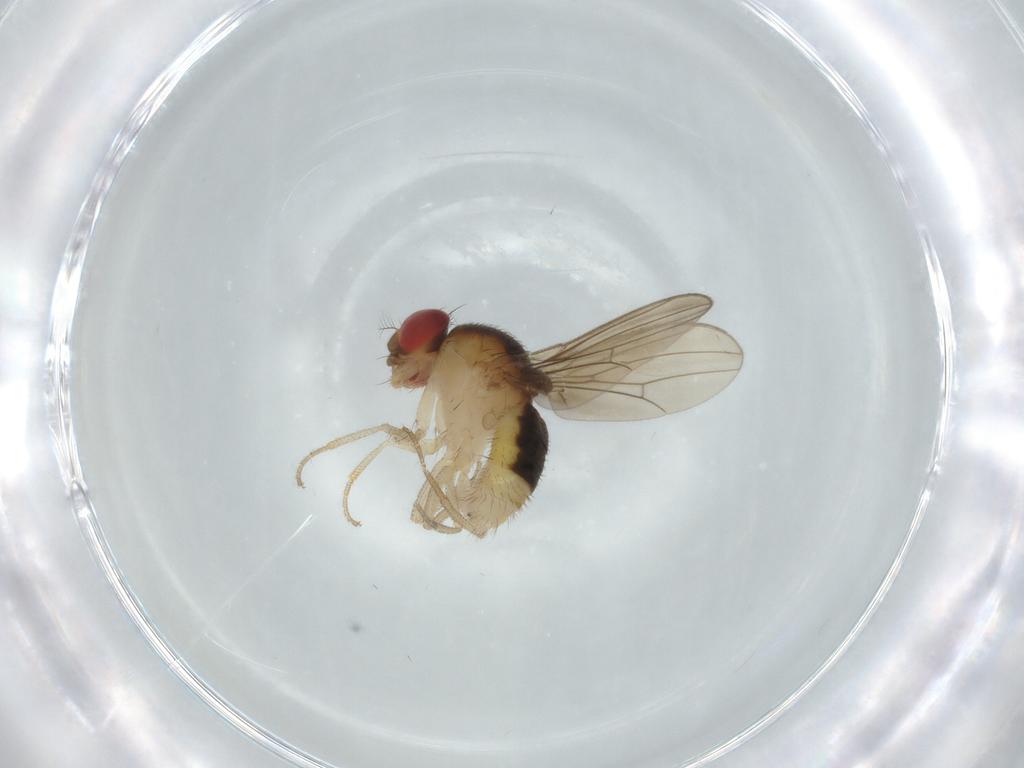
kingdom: Animalia
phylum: Arthropoda
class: Insecta
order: Diptera
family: Drosophilidae
